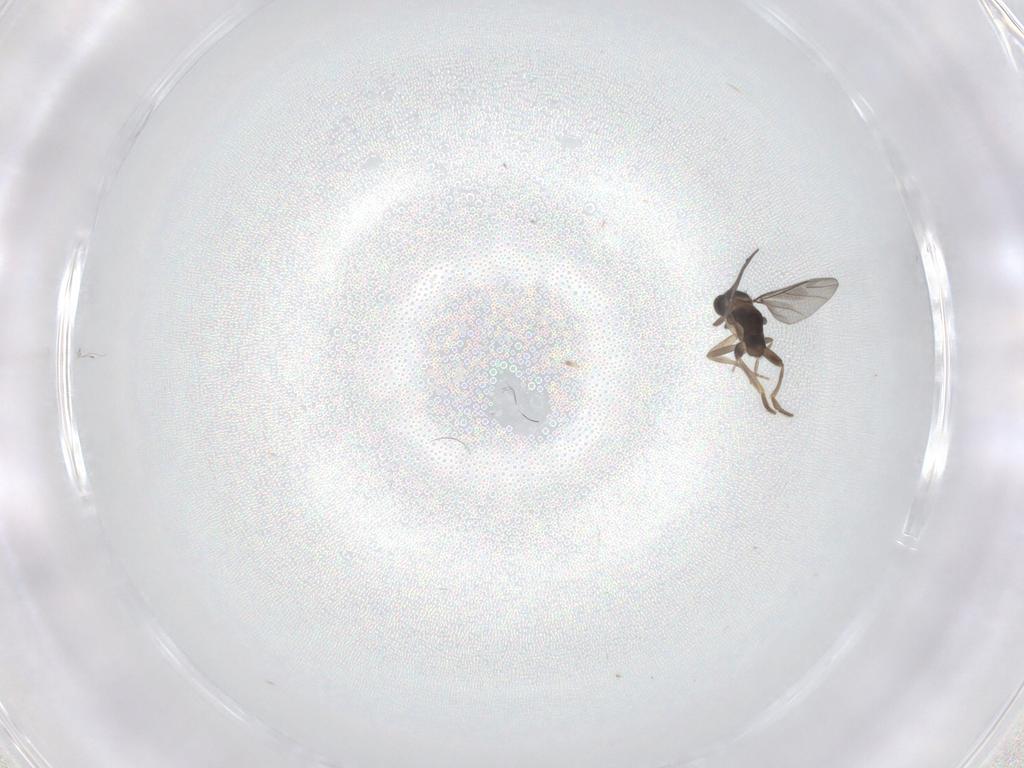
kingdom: Animalia
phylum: Arthropoda
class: Insecta
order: Diptera
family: Cecidomyiidae
